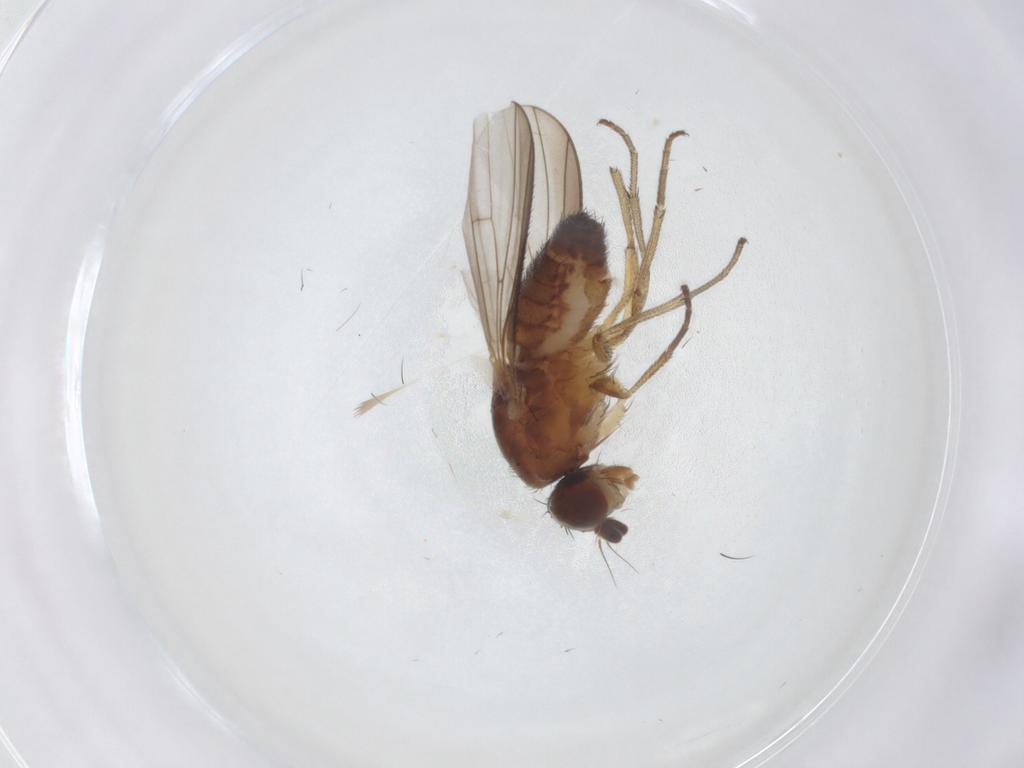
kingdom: Animalia
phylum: Arthropoda
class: Insecta
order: Diptera
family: Heleomyzidae
